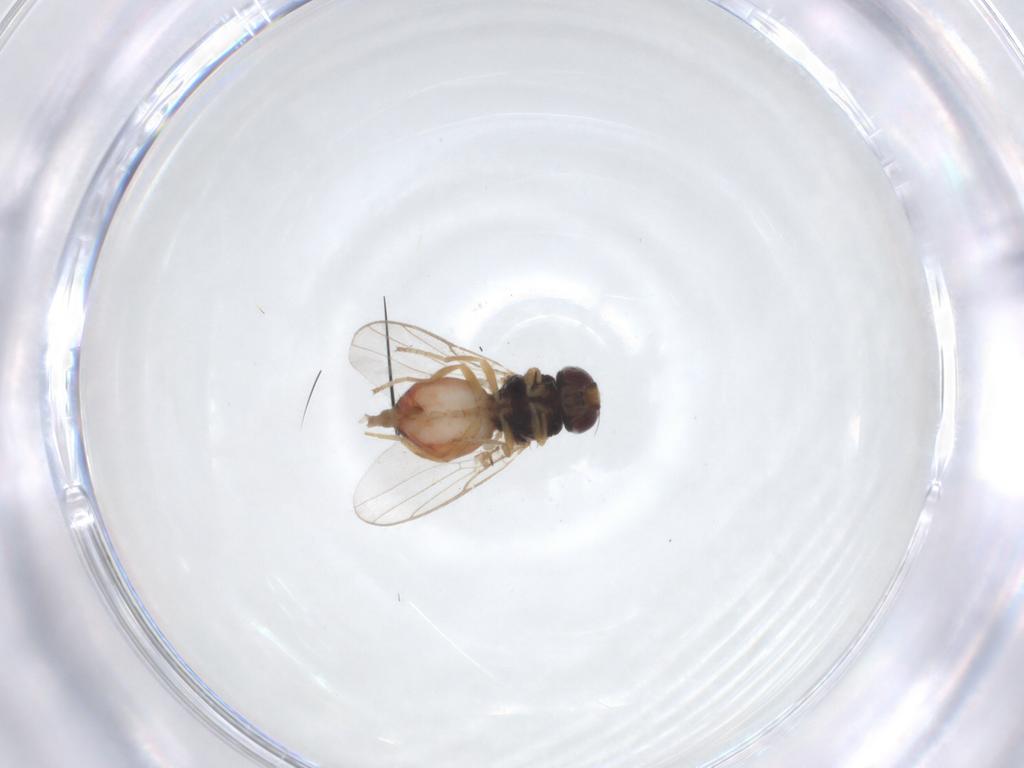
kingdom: Animalia
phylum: Arthropoda
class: Insecta
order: Diptera
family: Chloropidae
